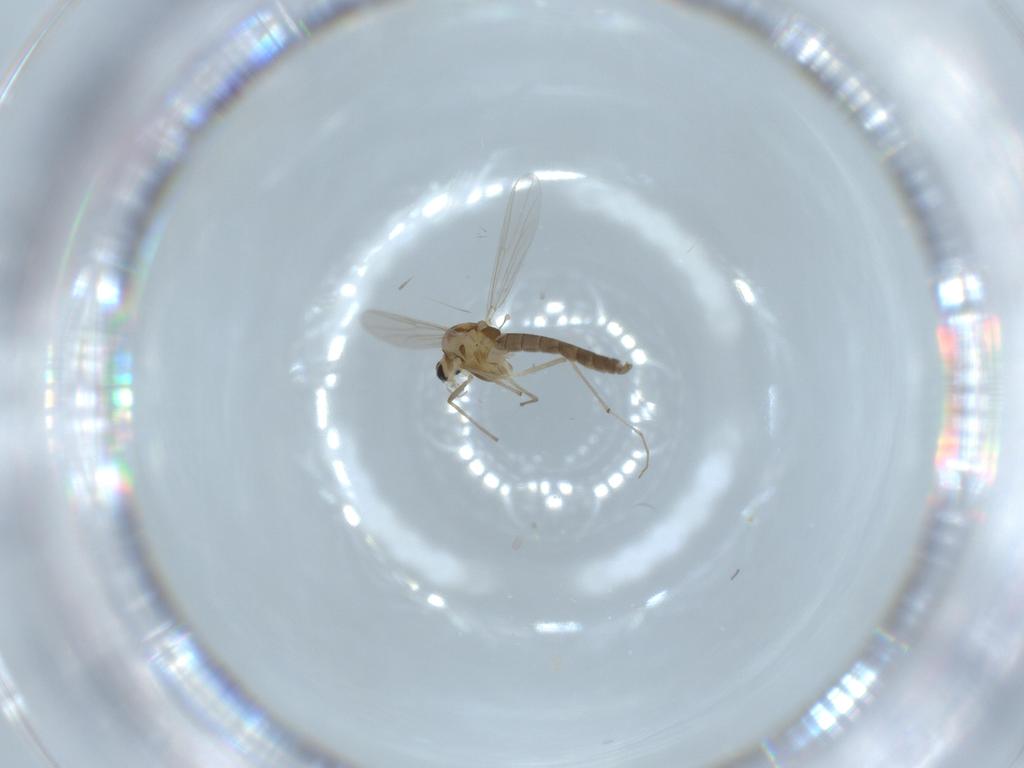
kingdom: Animalia
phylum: Arthropoda
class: Insecta
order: Diptera
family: Chironomidae
